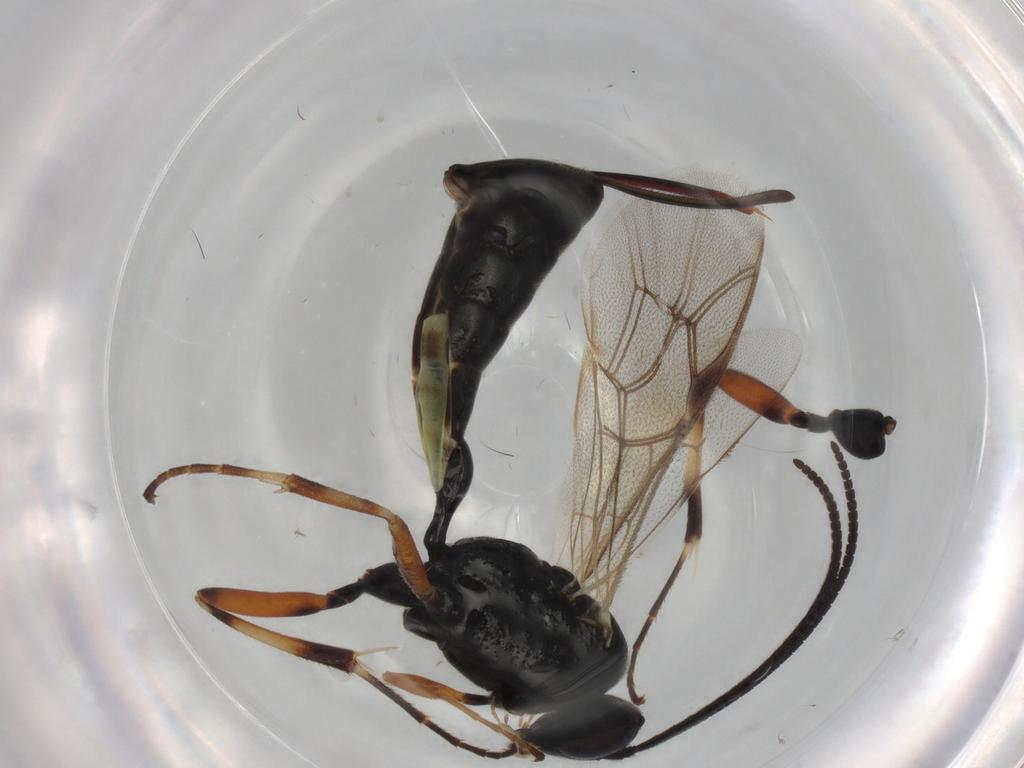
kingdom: Animalia
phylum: Arthropoda
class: Insecta
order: Hymenoptera
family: Ichneumonidae
